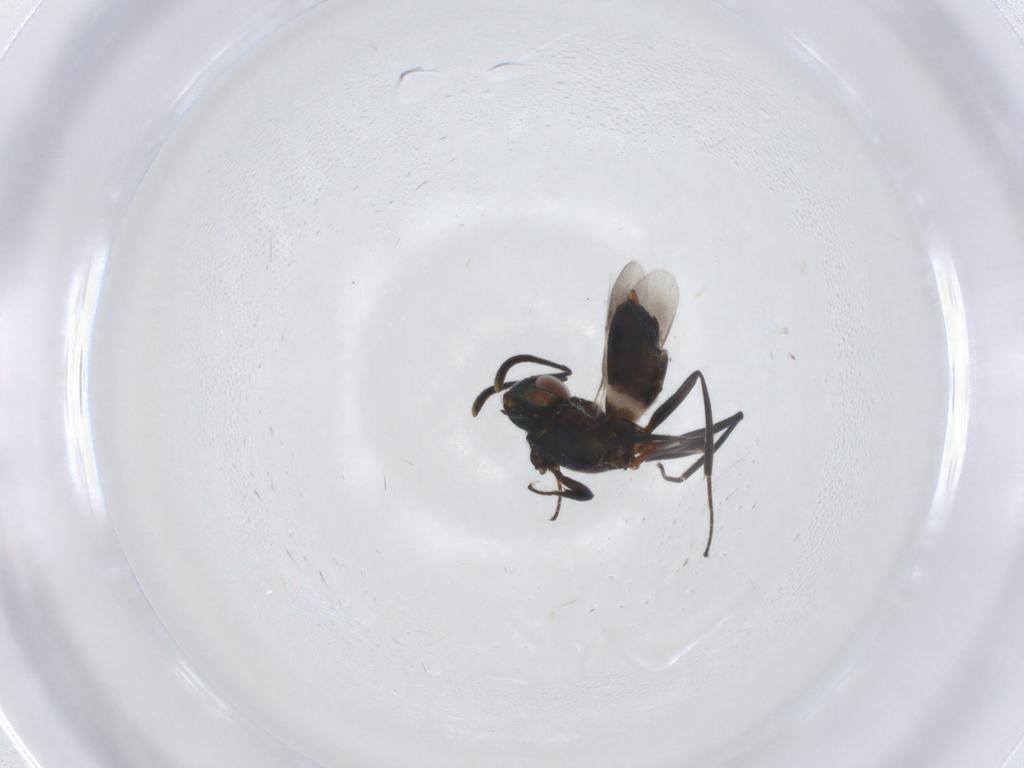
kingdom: Animalia
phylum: Arthropoda
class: Insecta
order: Hymenoptera
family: Eupelmidae
